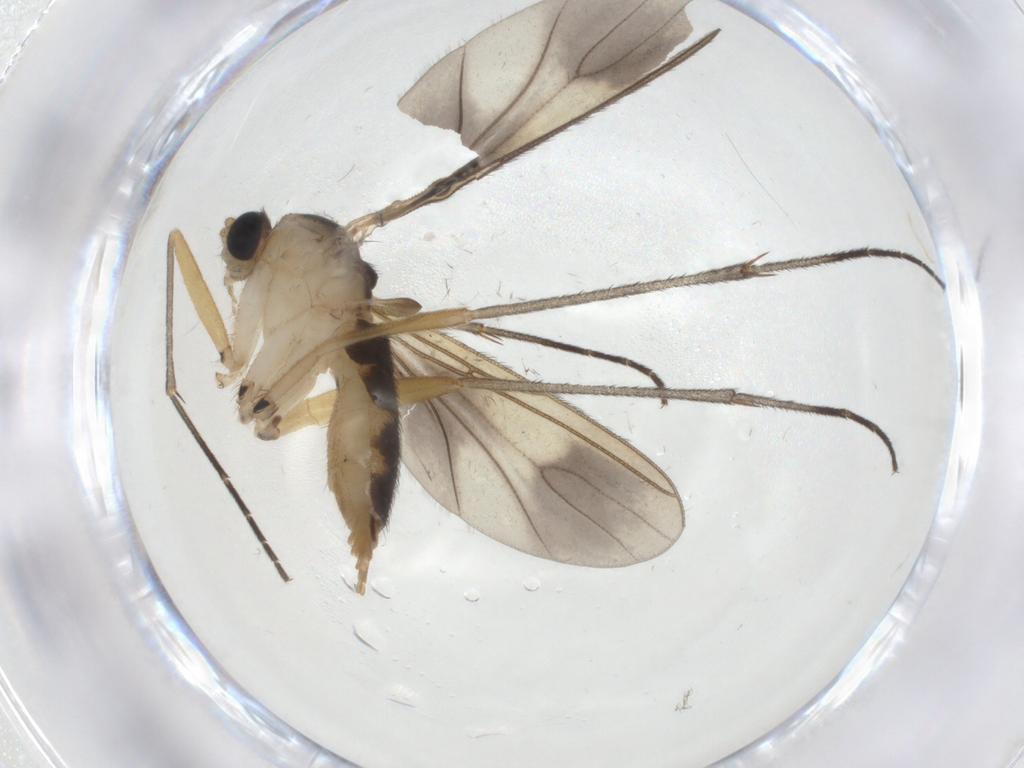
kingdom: Animalia
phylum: Arthropoda
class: Insecta
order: Diptera
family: Sciaridae
